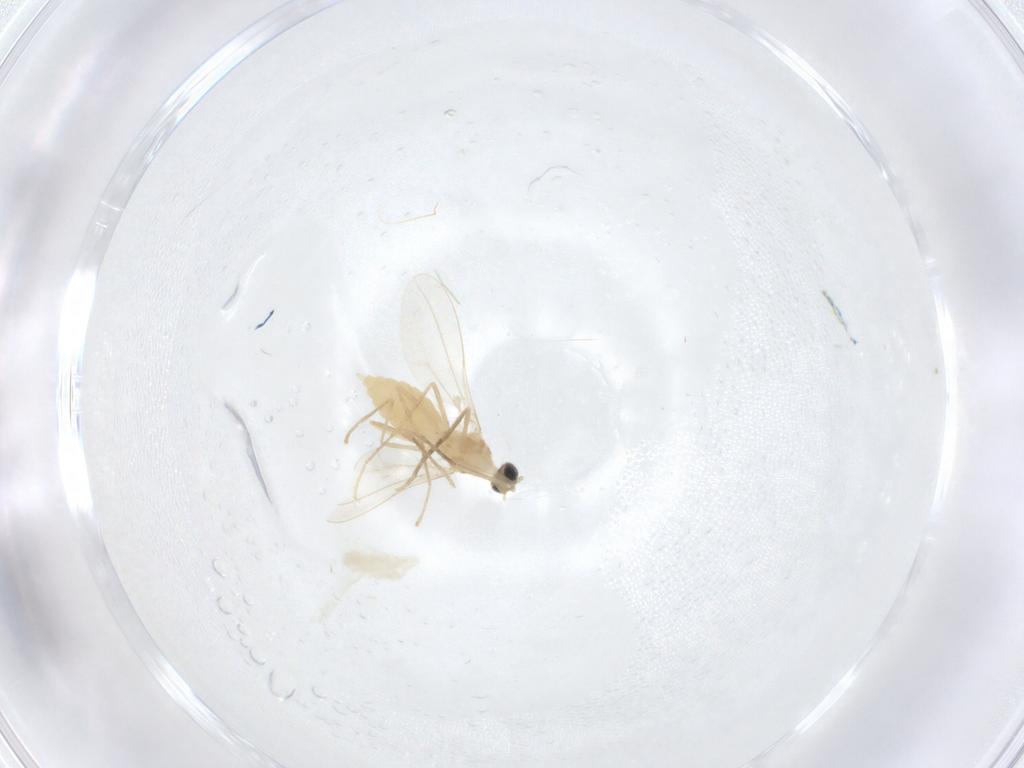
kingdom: Animalia
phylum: Arthropoda
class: Insecta
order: Diptera
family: Cecidomyiidae
